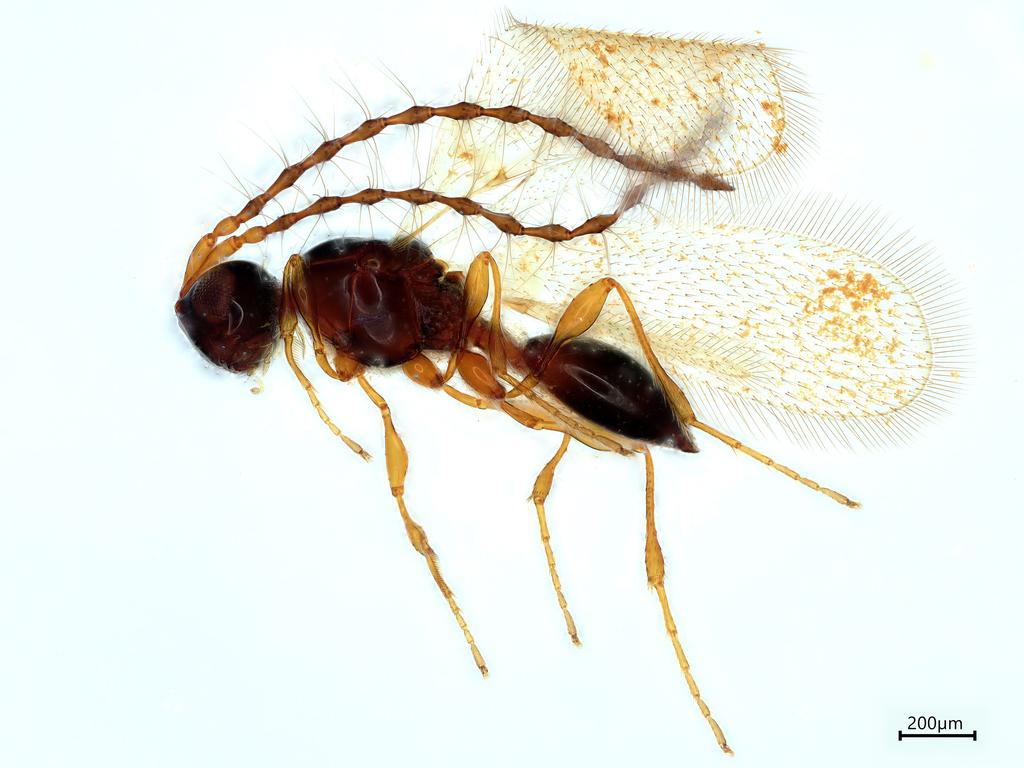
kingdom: Animalia
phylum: Arthropoda
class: Insecta
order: Hymenoptera
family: Diapriidae
